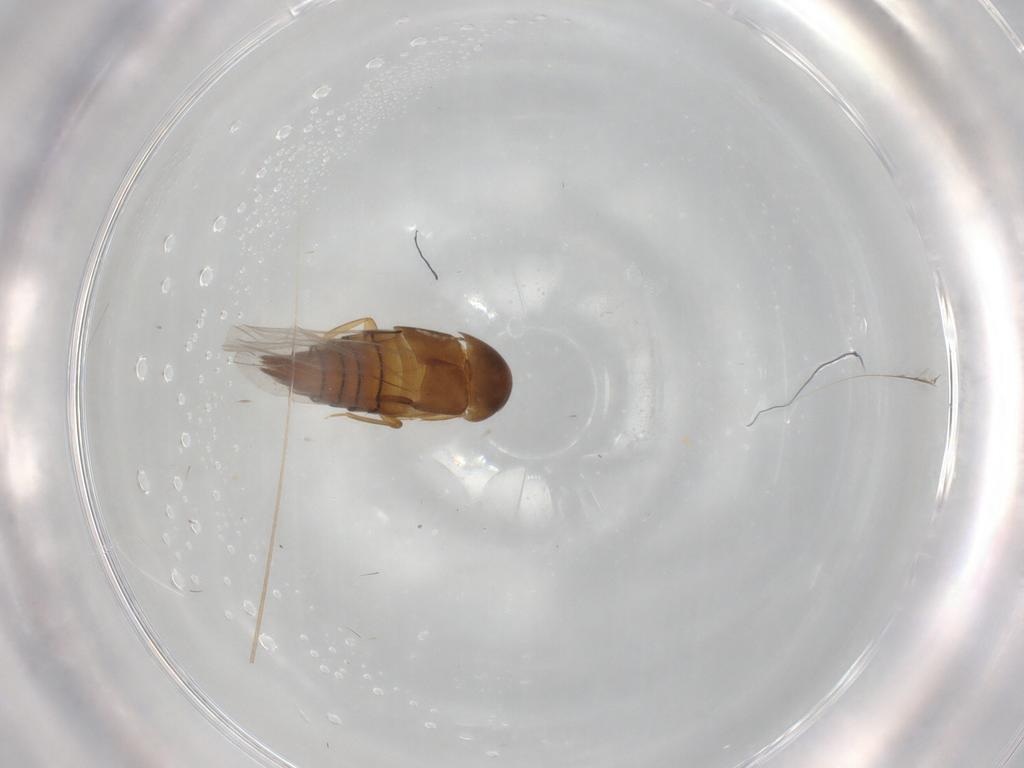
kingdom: Animalia
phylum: Arthropoda
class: Insecta
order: Coleoptera
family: Staphylinidae
